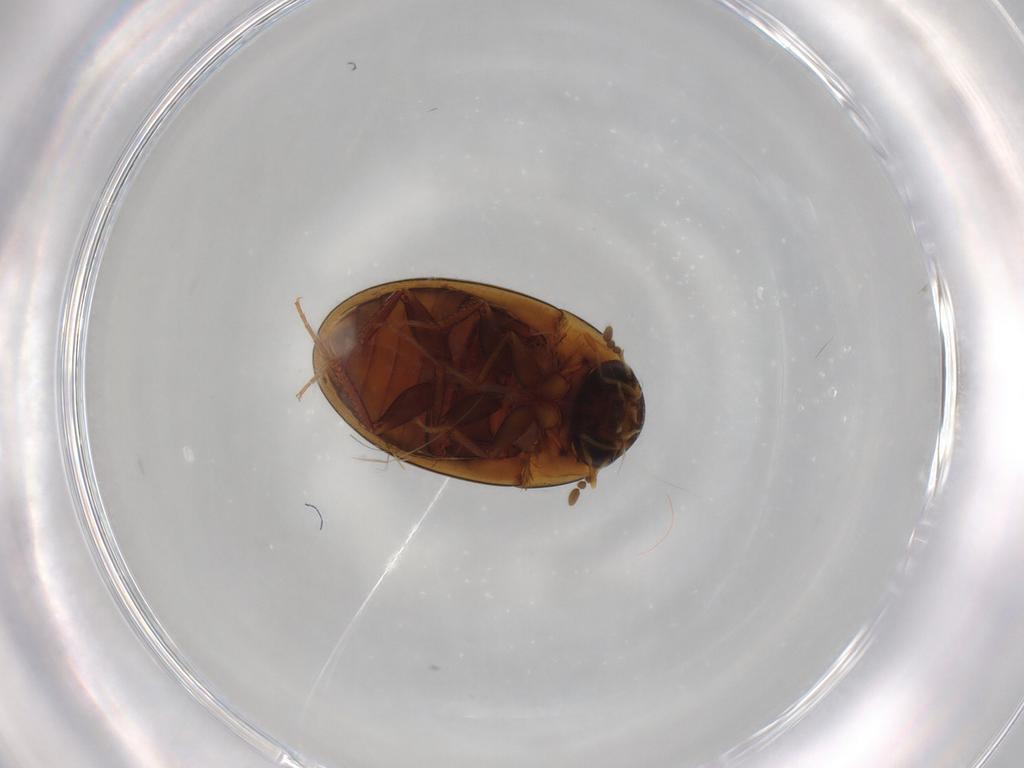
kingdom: Animalia
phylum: Arthropoda
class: Insecta
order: Coleoptera
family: Hydrophilidae
